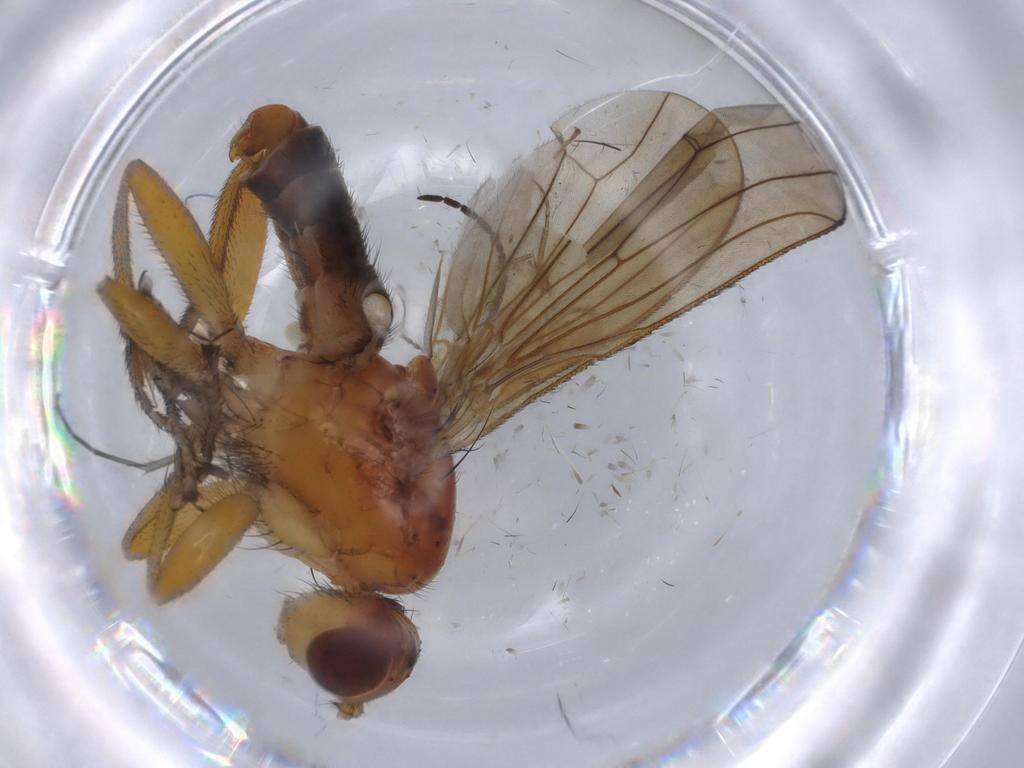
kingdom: Animalia
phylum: Arthropoda
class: Insecta
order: Diptera
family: Heleomyzidae
